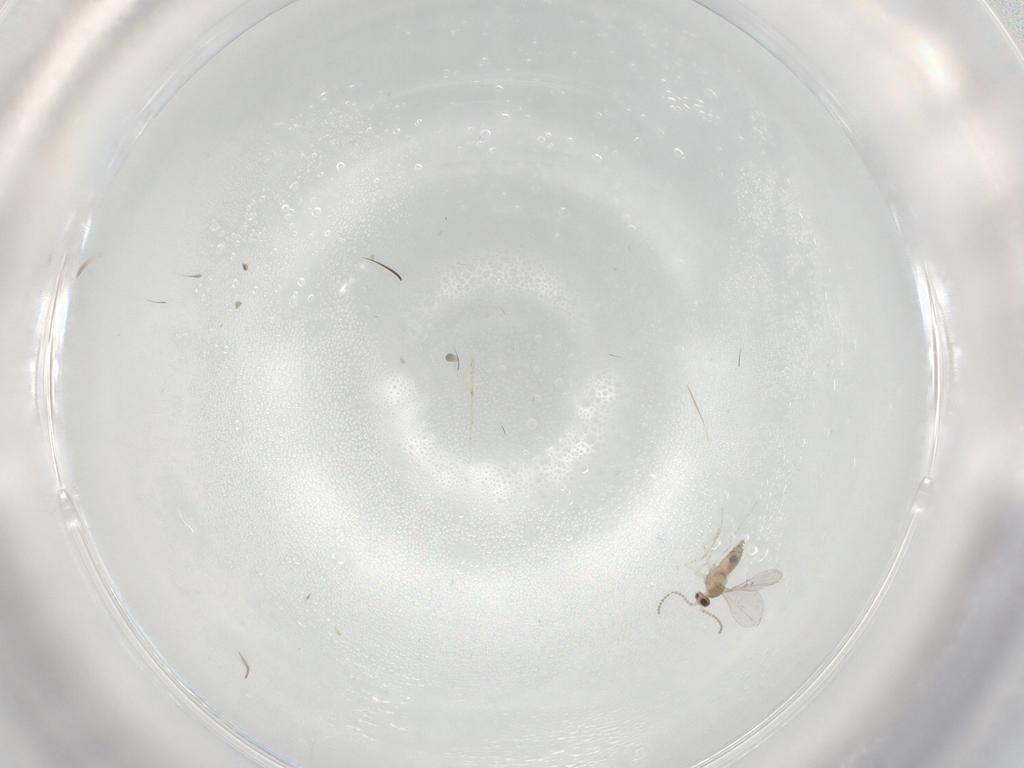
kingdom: Animalia
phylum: Arthropoda
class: Insecta
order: Diptera
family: Cecidomyiidae
